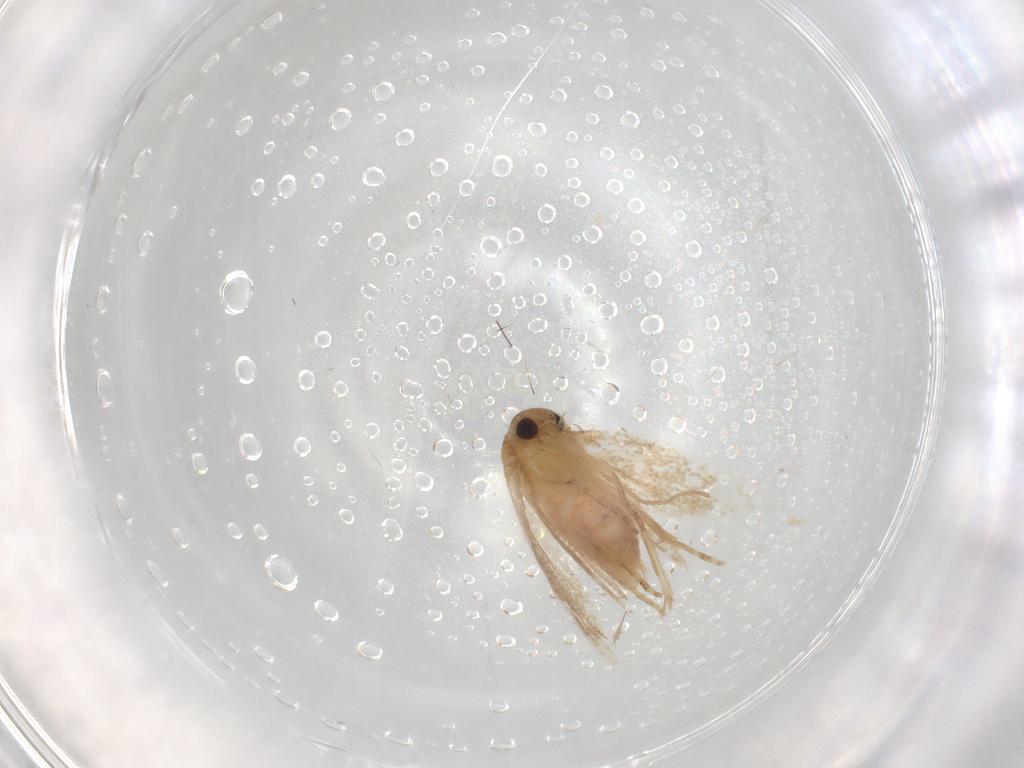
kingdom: Animalia
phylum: Arthropoda
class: Insecta
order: Lepidoptera
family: Geometridae
